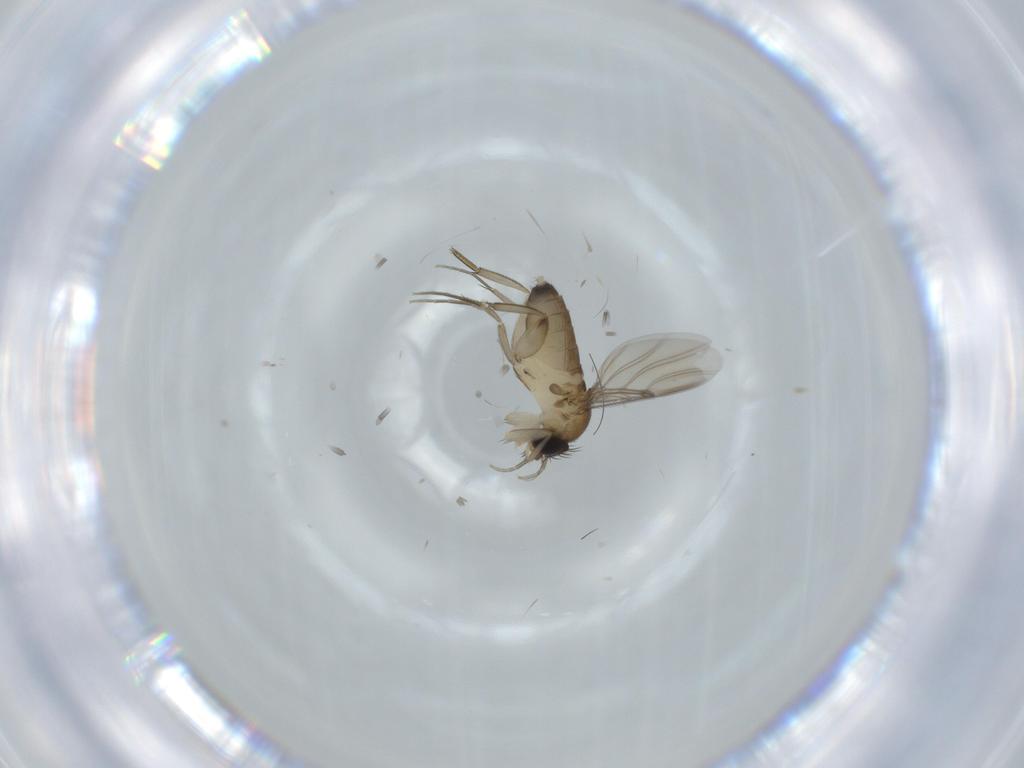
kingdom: Animalia
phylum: Arthropoda
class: Insecta
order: Diptera
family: Phoridae
